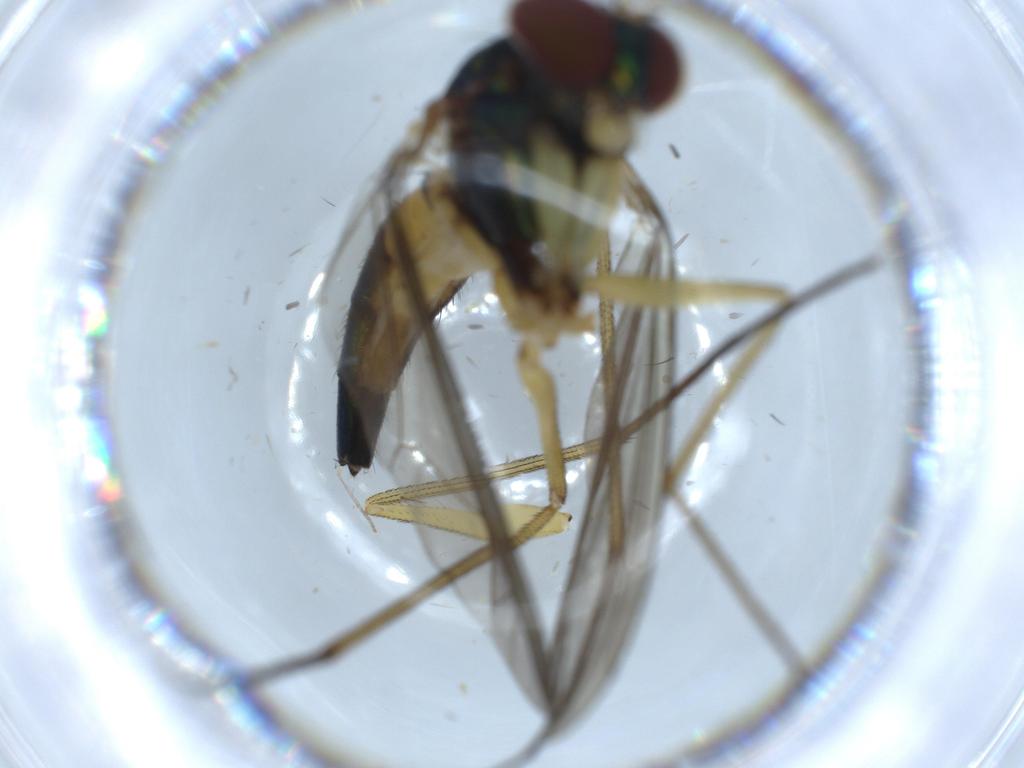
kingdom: Animalia
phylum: Arthropoda
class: Insecta
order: Diptera
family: Dolichopodidae
